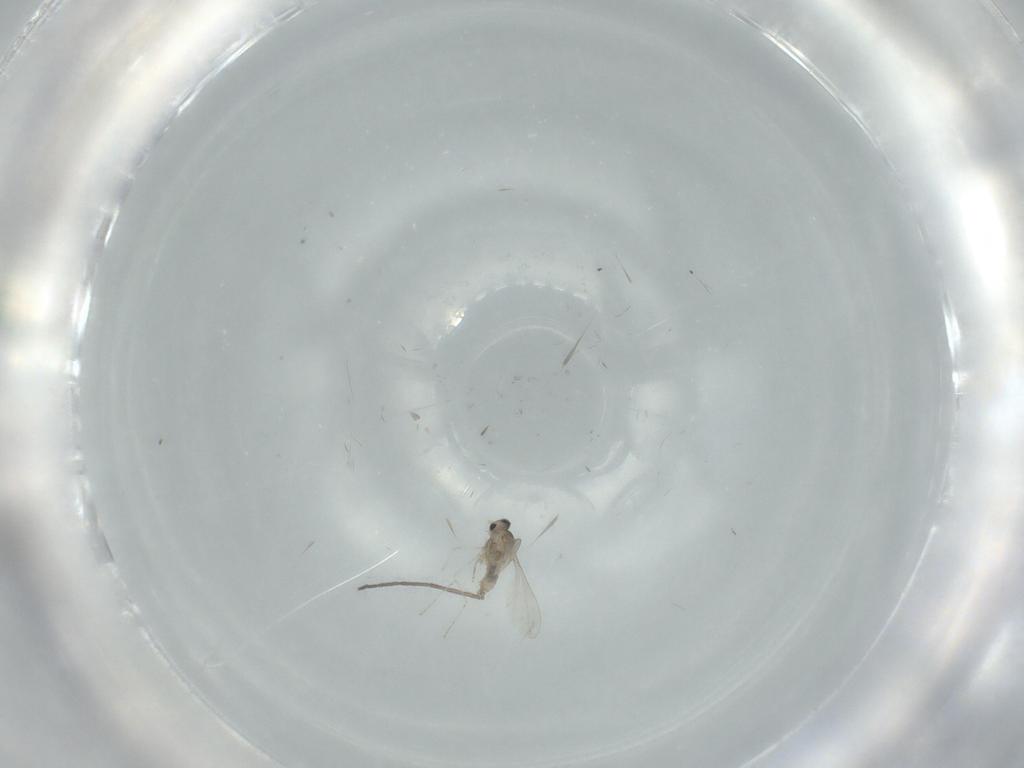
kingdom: Animalia
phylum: Arthropoda
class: Insecta
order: Diptera
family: Cecidomyiidae
